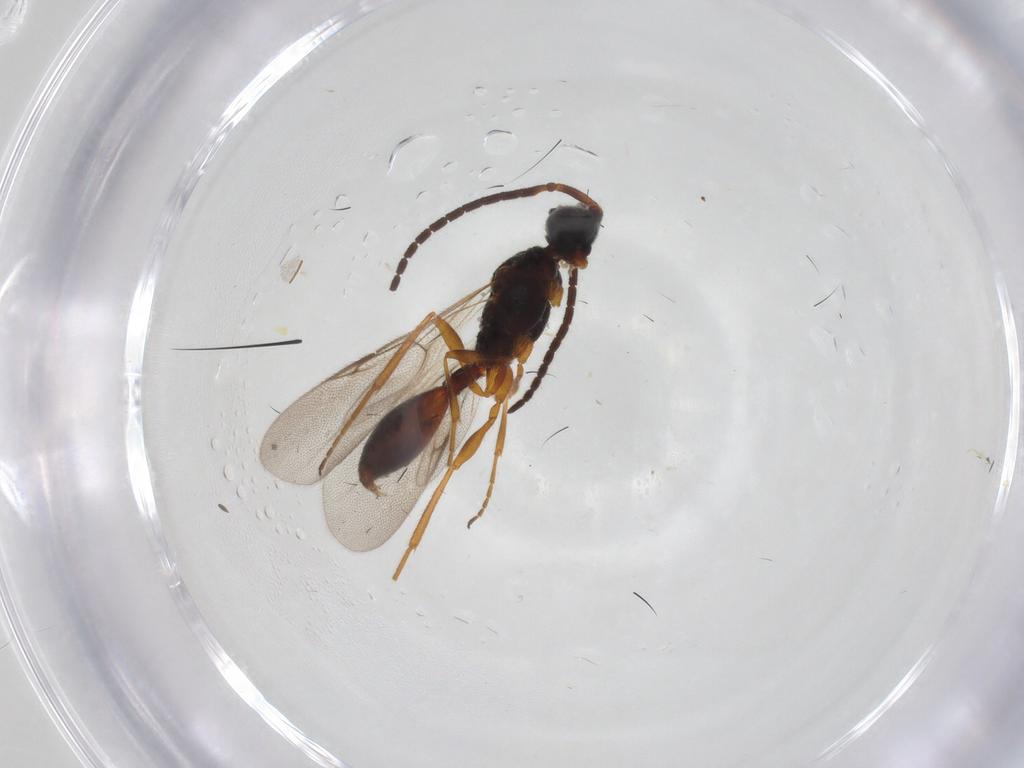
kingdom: Animalia
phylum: Arthropoda
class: Insecta
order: Hymenoptera
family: Diapriidae
